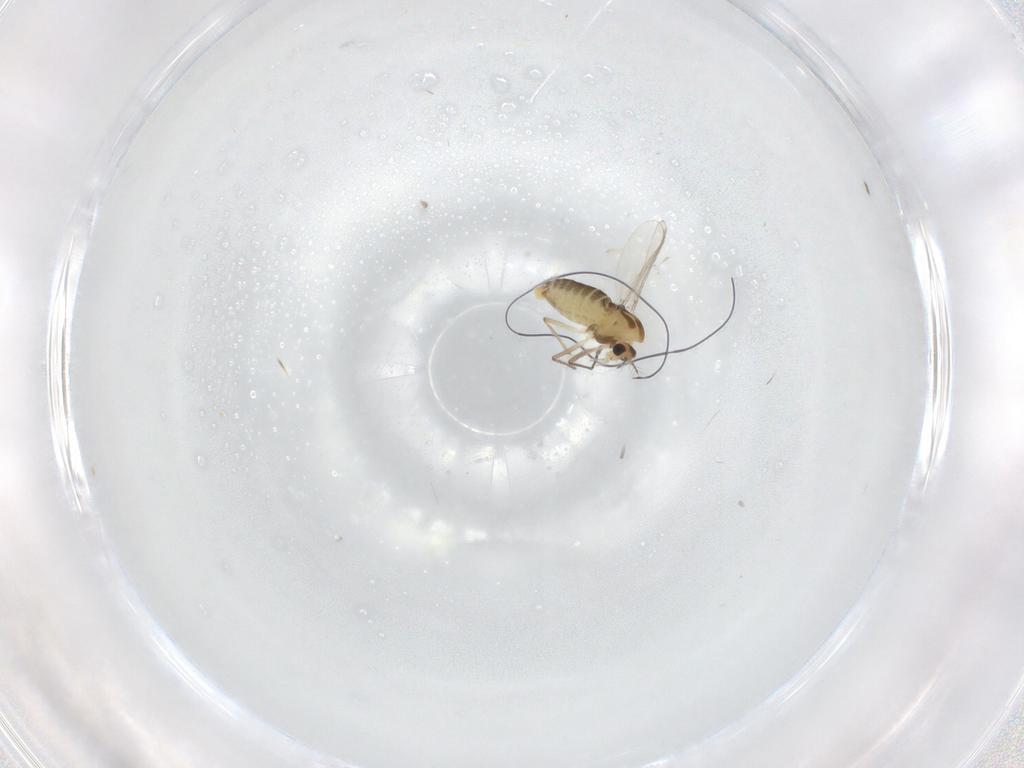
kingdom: Animalia
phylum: Arthropoda
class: Insecta
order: Diptera
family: Chironomidae
